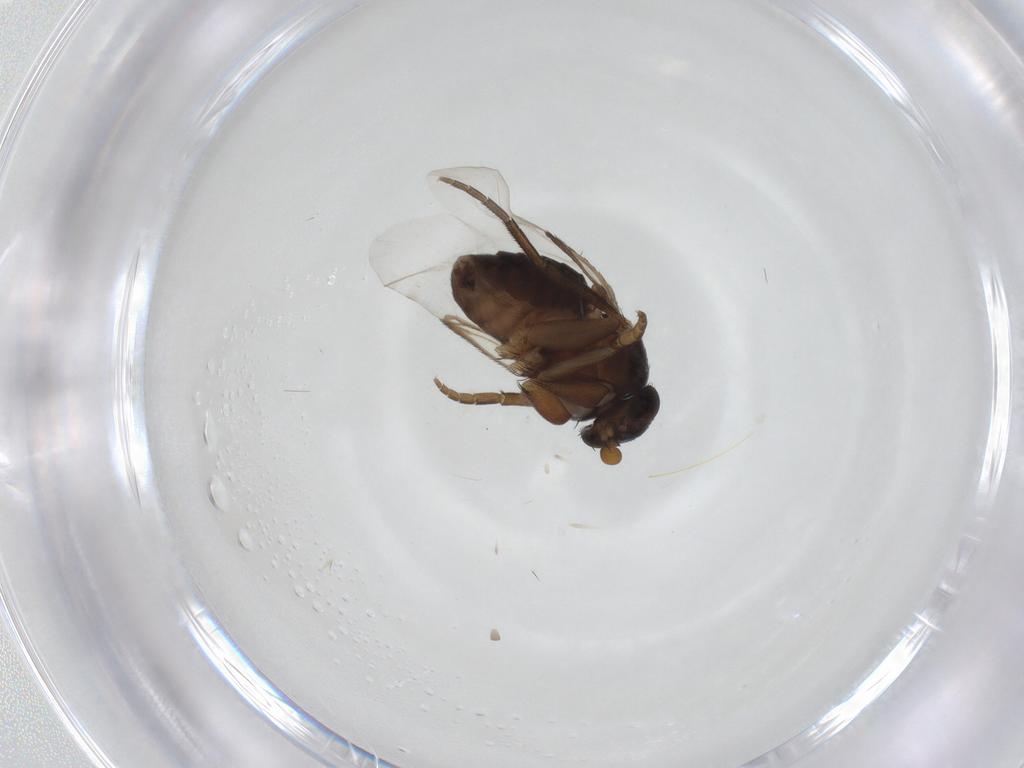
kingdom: Animalia
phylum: Arthropoda
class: Insecta
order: Diptera
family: Phoridae
